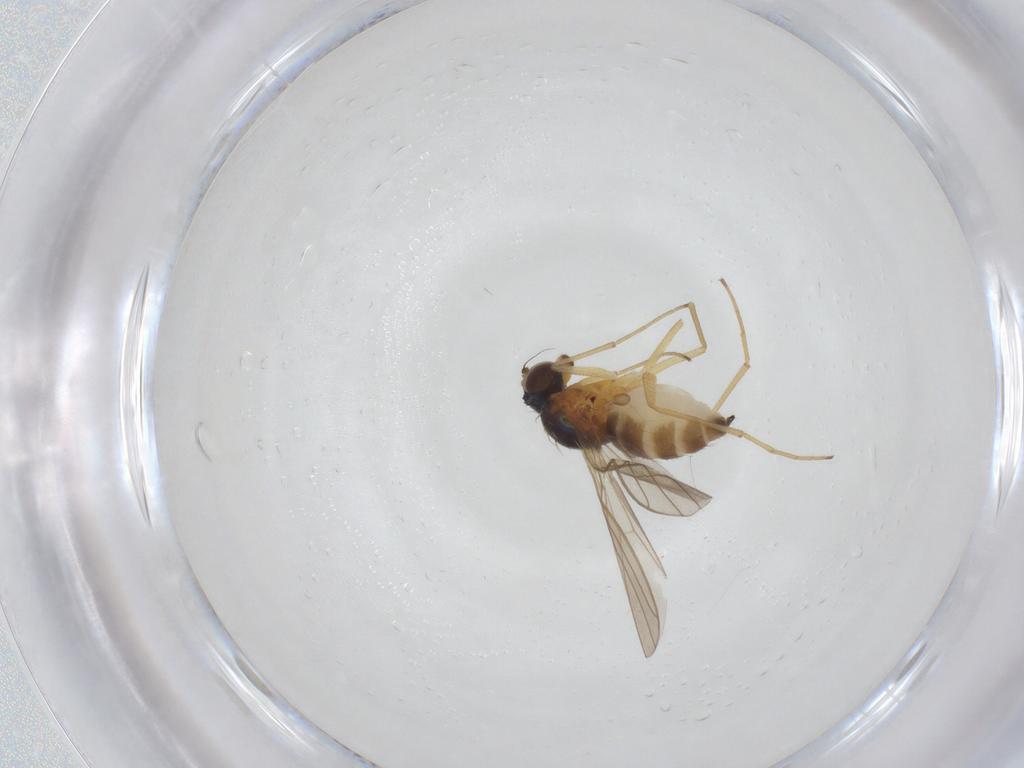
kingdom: Animalia
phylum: Arthropoda
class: Insecta
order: Diptera
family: Dolichopodidae
